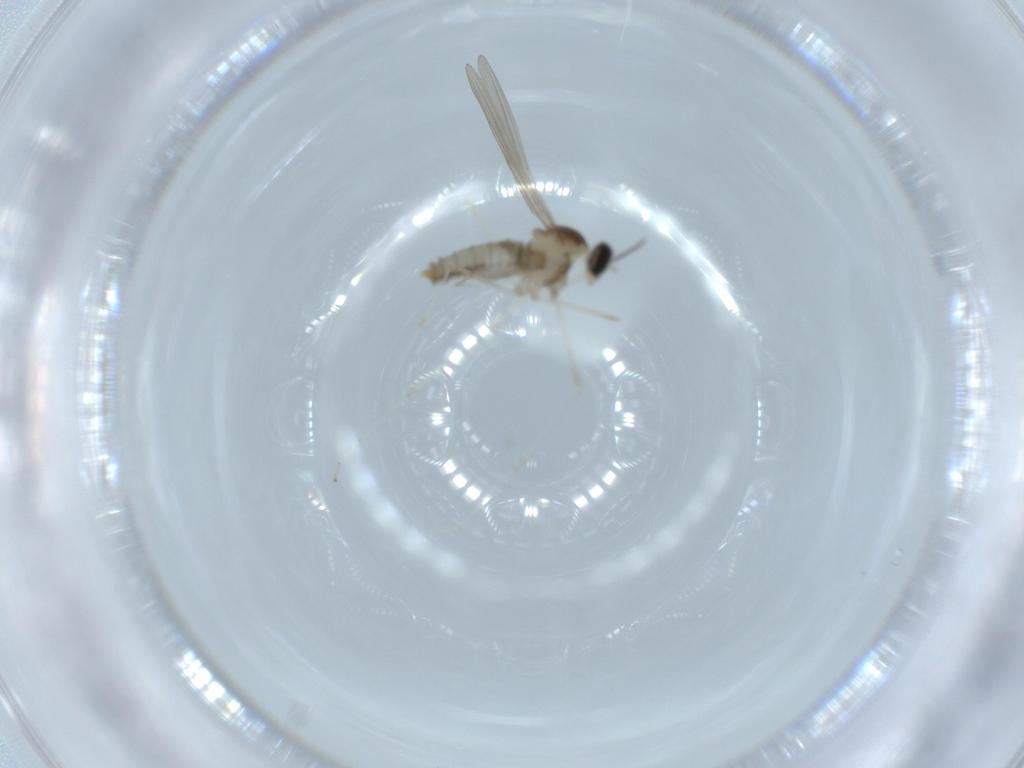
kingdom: Animalia
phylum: Arthropoda
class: Insecta
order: Diptera
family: Cecidomyiidae
